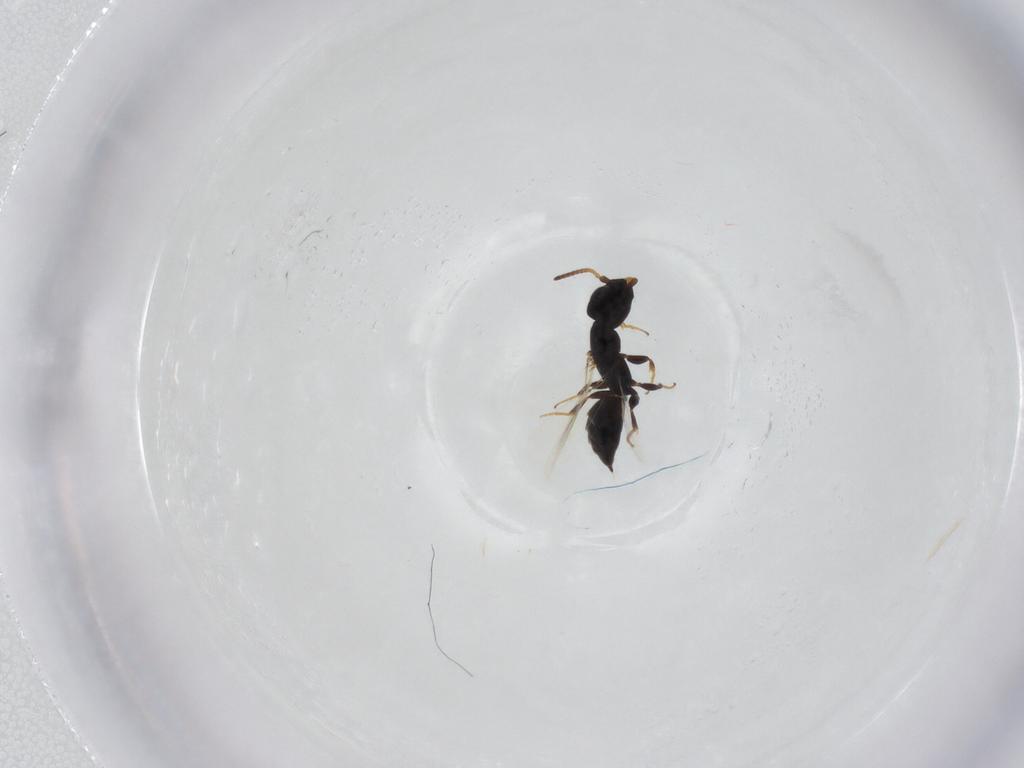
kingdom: Animalia
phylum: Arthropoda
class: Insecta
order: Hymenoptera
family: Bethylidae
